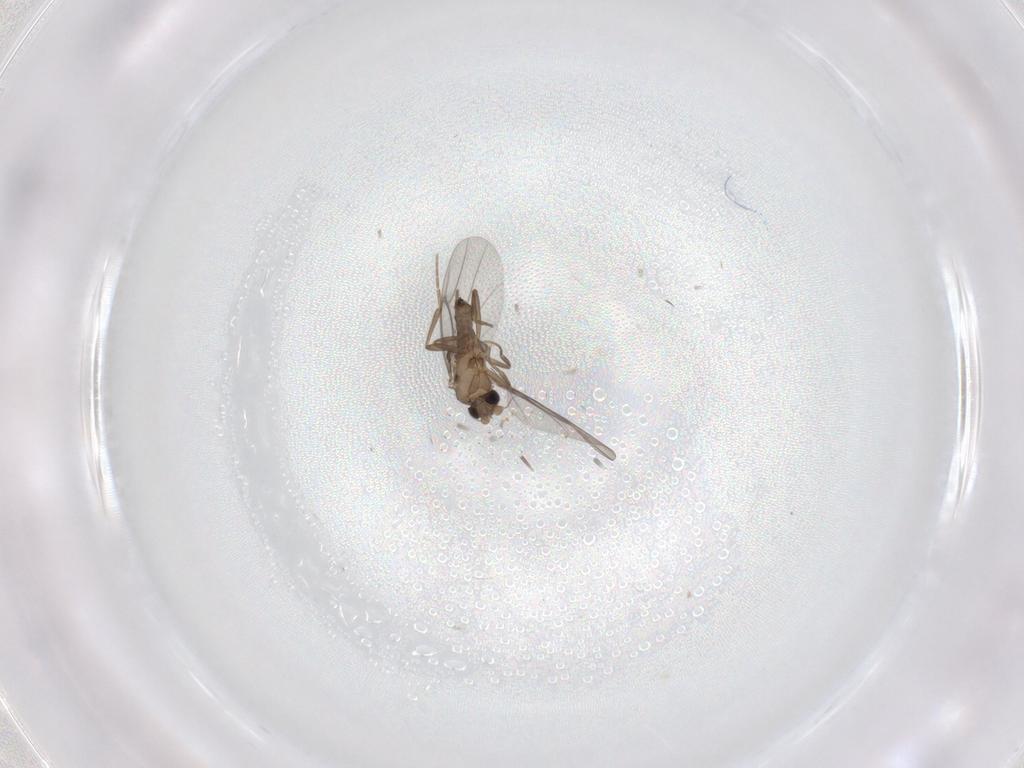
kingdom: Animalia
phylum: Arthropoda
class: Insecta
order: Diptera
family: Cecidomyiidae
